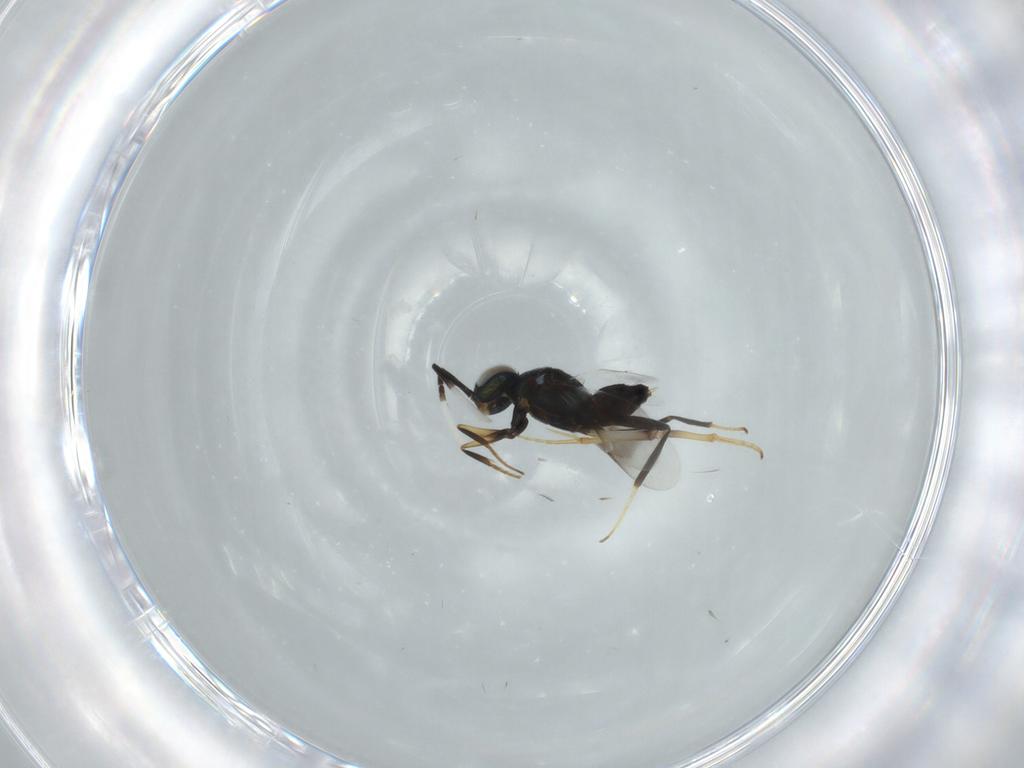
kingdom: Animalia
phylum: Arthropoda
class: Insecta
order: Hymenoptera
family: Encyrtidae
